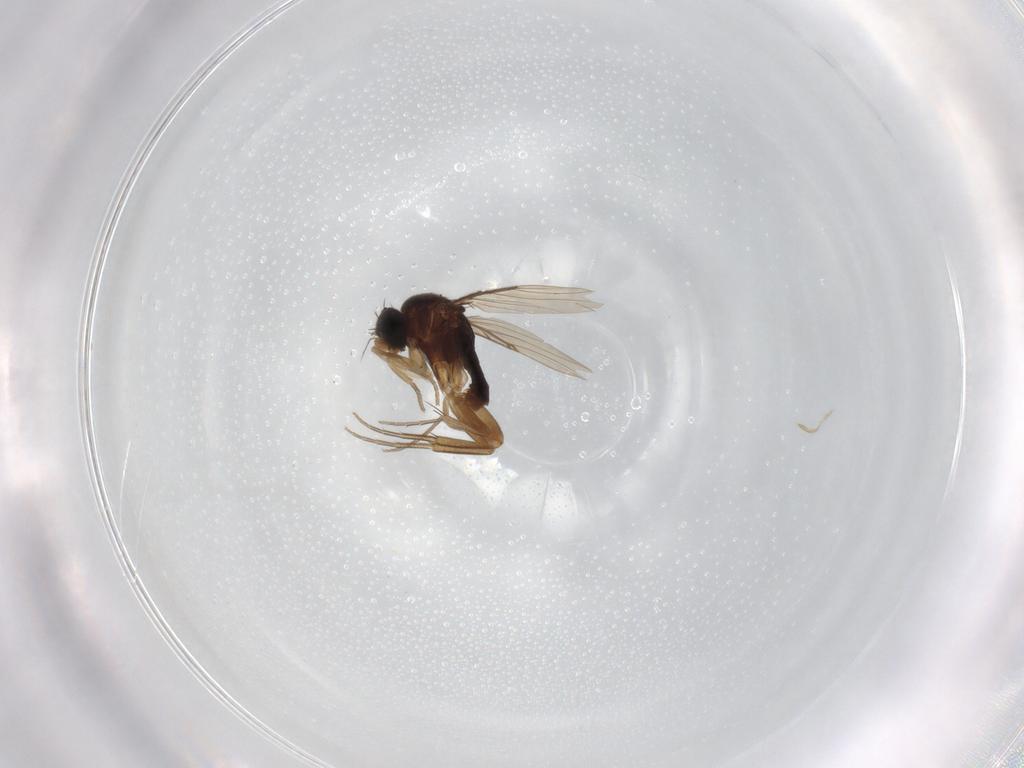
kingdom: Animalia
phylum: Arthropoda
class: Insecta
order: Diptera
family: Phoridae
